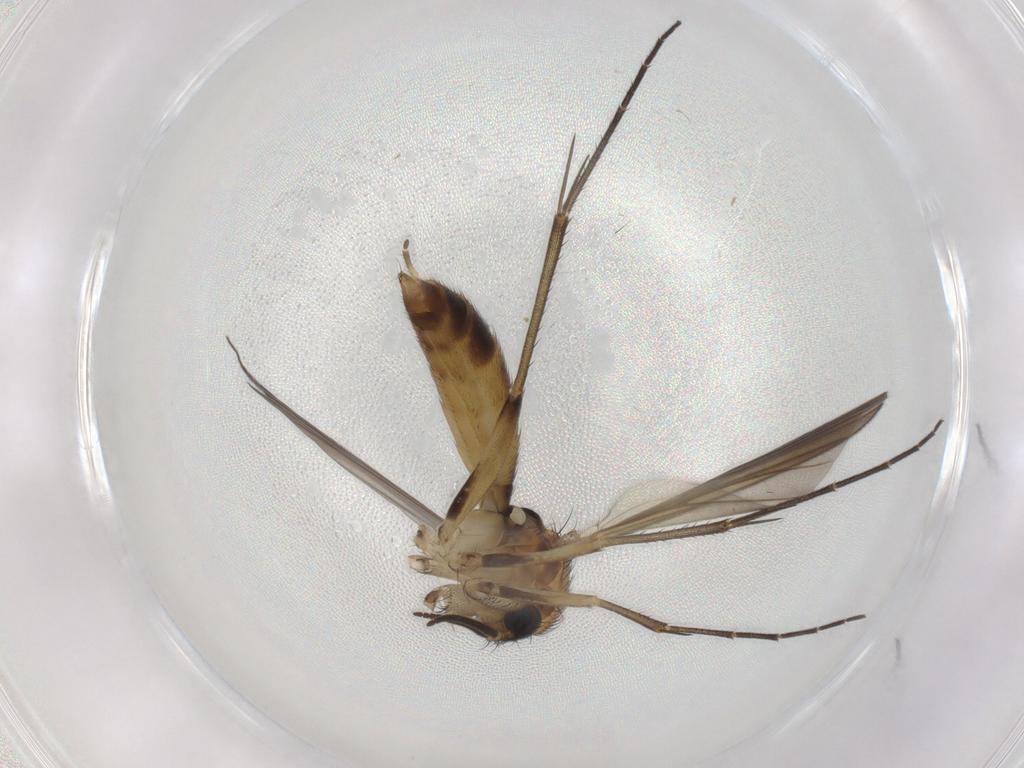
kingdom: Animalia
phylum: Arthropoda
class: Insecta
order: Diptera
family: Mycetophilidae
